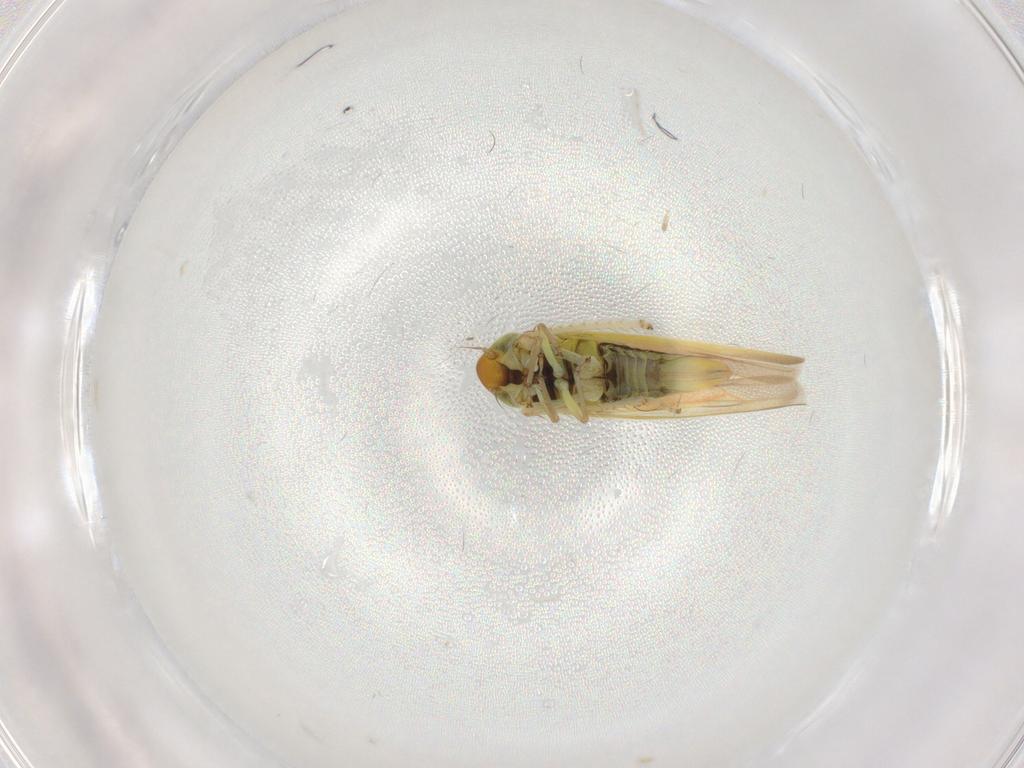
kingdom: Animalia
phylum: Arthropoda
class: Insecta
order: Hemiptera
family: Cicadellidae
